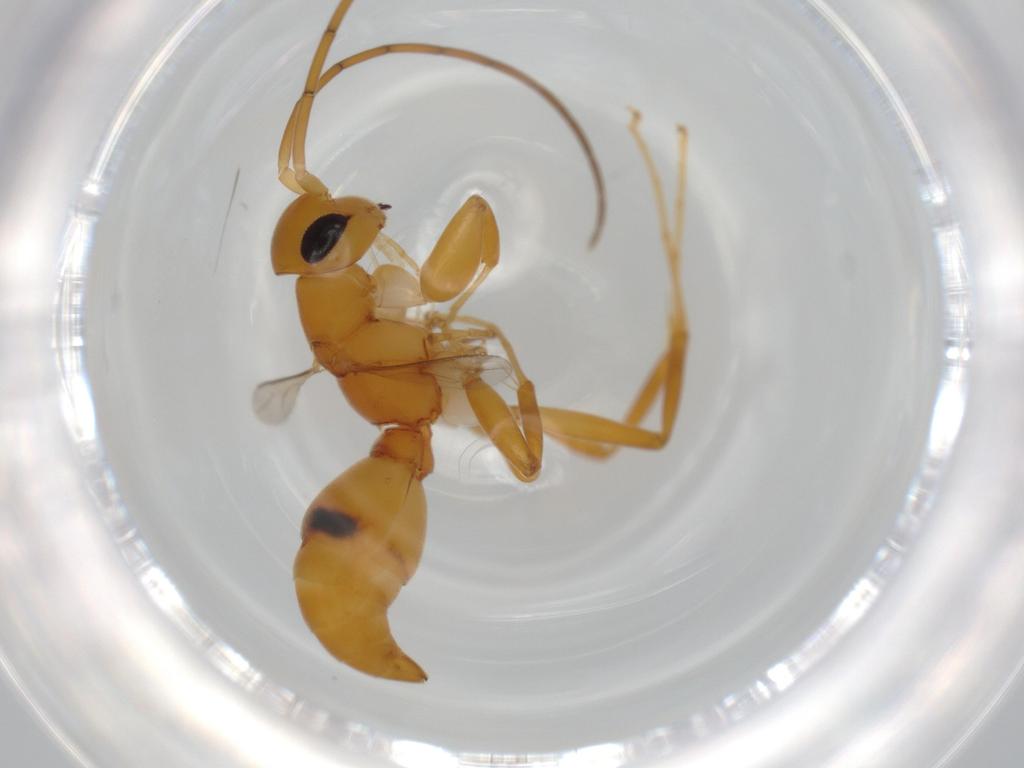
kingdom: Animalia
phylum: Arthropoda
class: Insecta
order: Hymenoptera
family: Rhopalosomatidae
